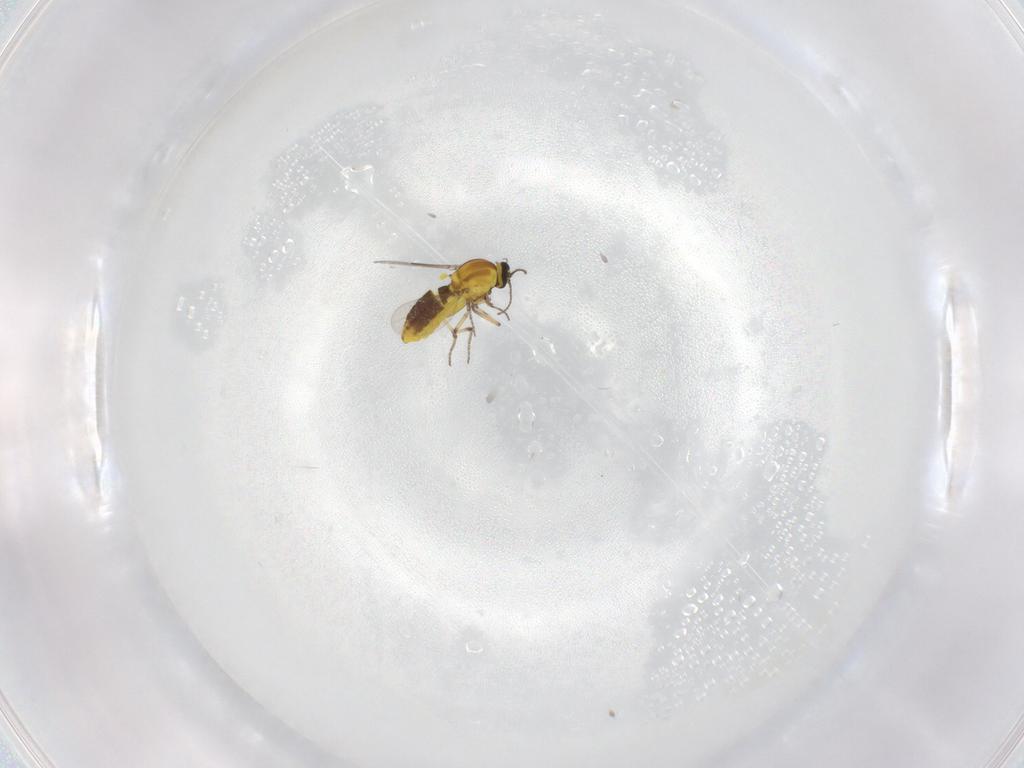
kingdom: Animalia
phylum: Arthropoda
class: Insecta
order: Diptera
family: Ceratopogonidae
